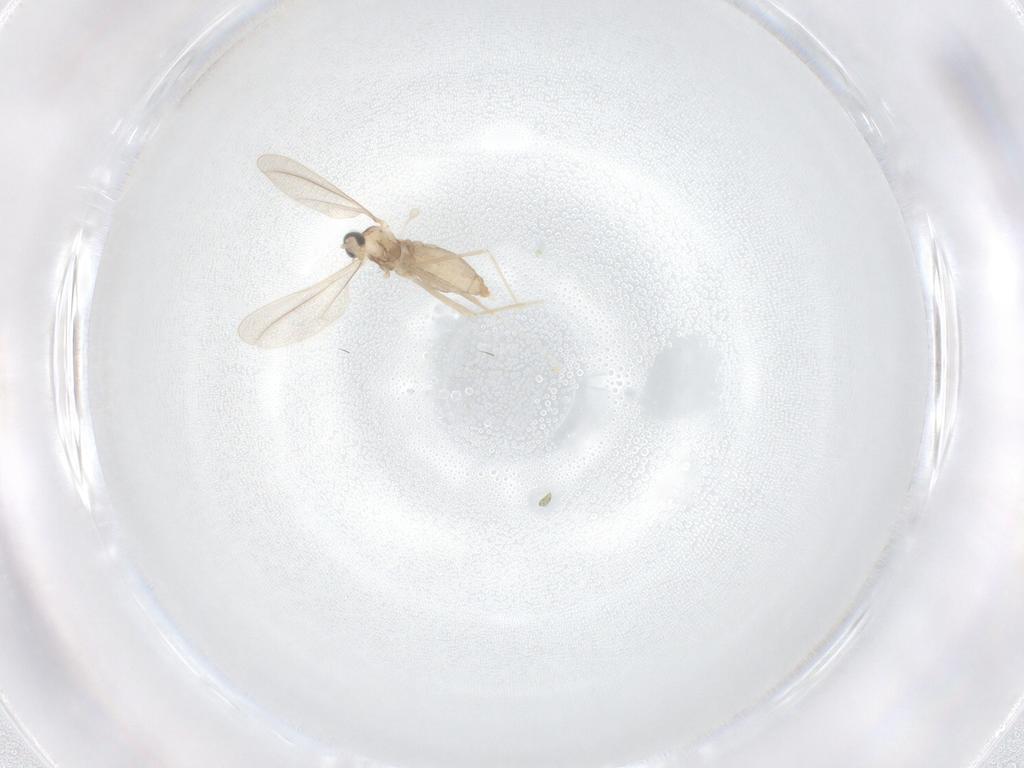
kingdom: Animalia
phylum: Arthropoda
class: Insecta
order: Diptera
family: Cecidomyiidae
